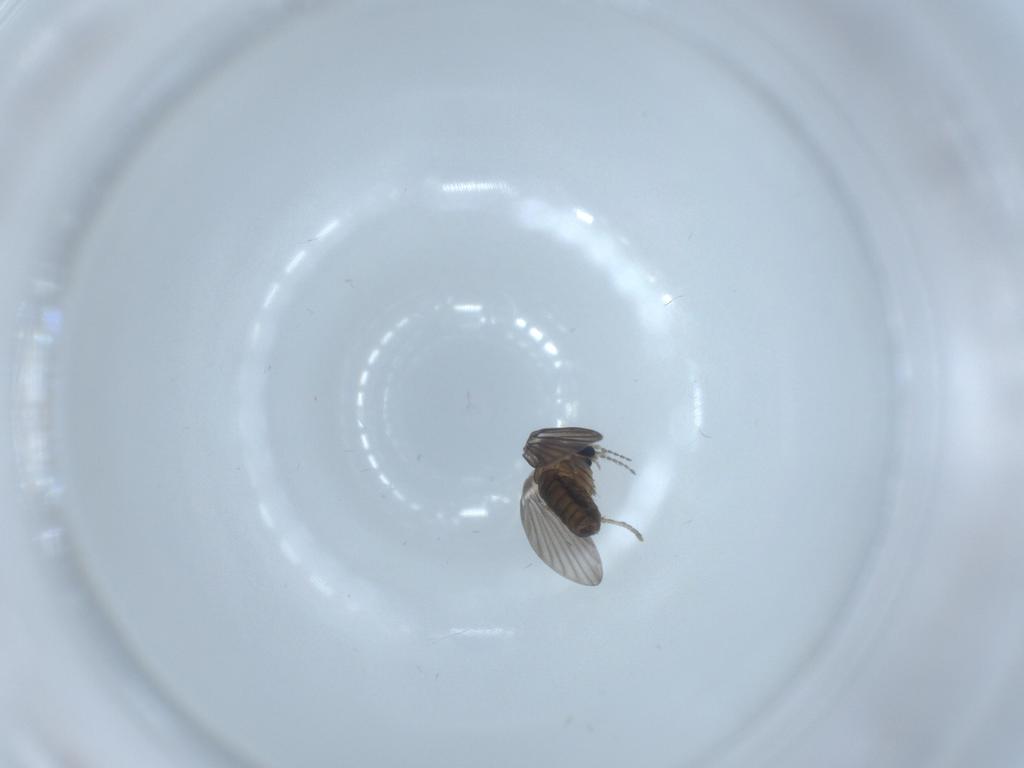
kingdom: Animalia
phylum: Arthropoda
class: Insecta
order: Diptera
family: Psychodidae
